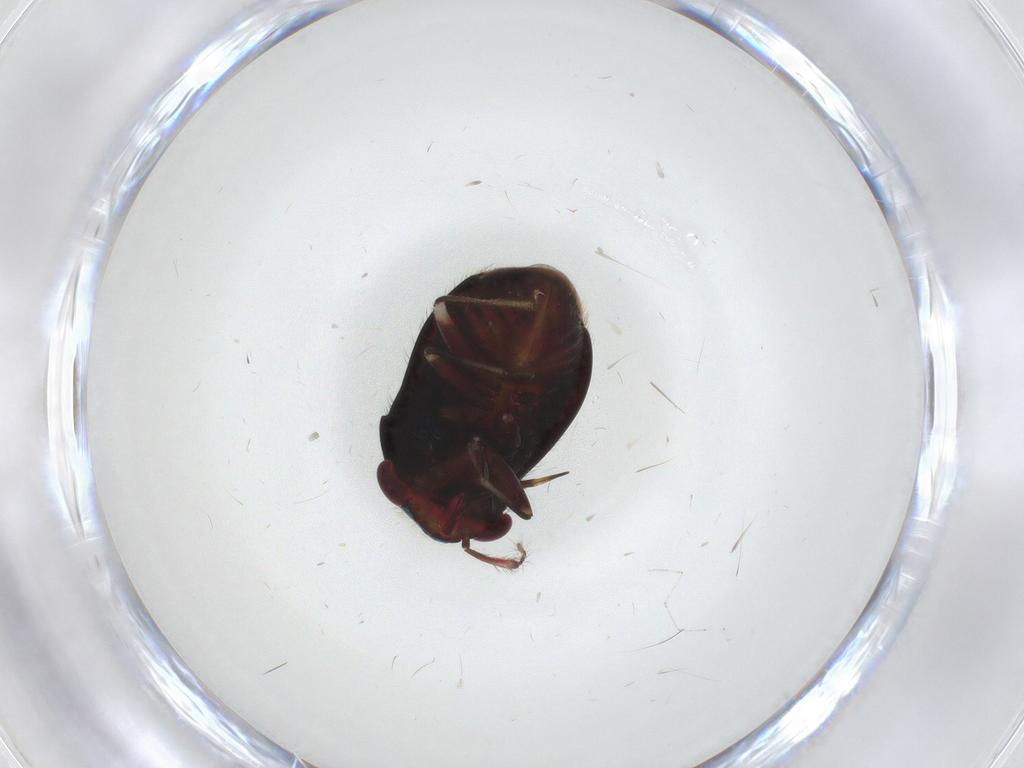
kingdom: Animalia
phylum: Arthropoda
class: Insecta
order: Hemiptera
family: Miridae
